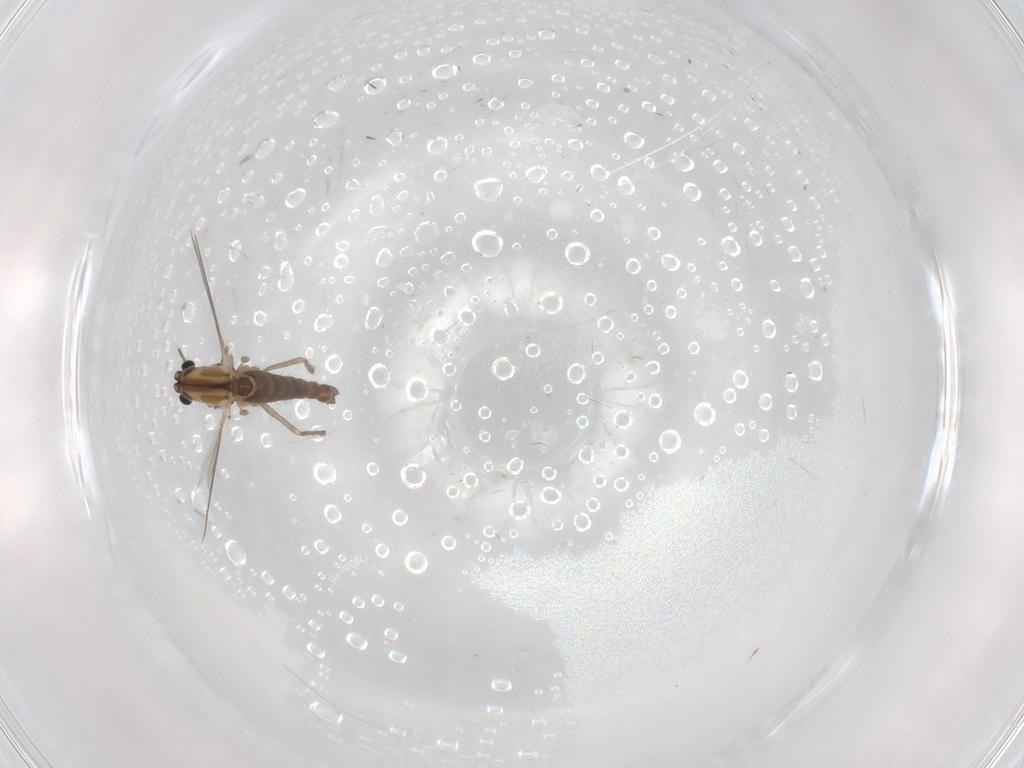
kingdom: Animalia
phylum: Arthropoda
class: Insecta
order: Diptera
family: Chironomidae
